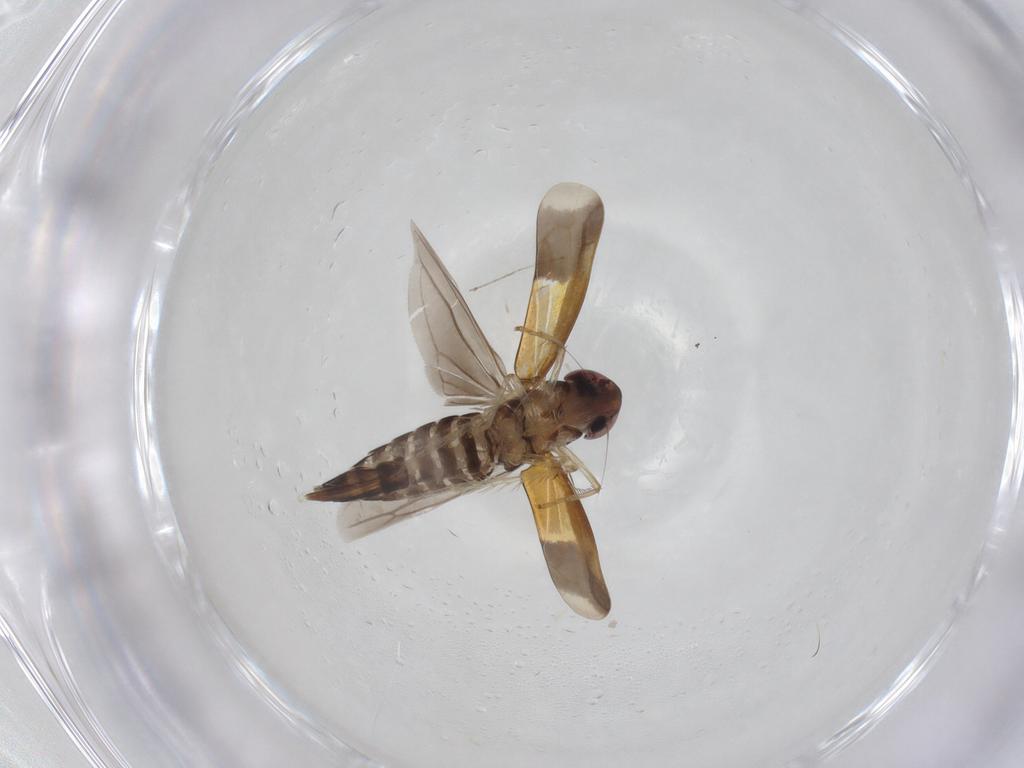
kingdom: Animalia
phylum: Arthropoda
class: Insecta
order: Hemiptera
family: Cicadellidae
